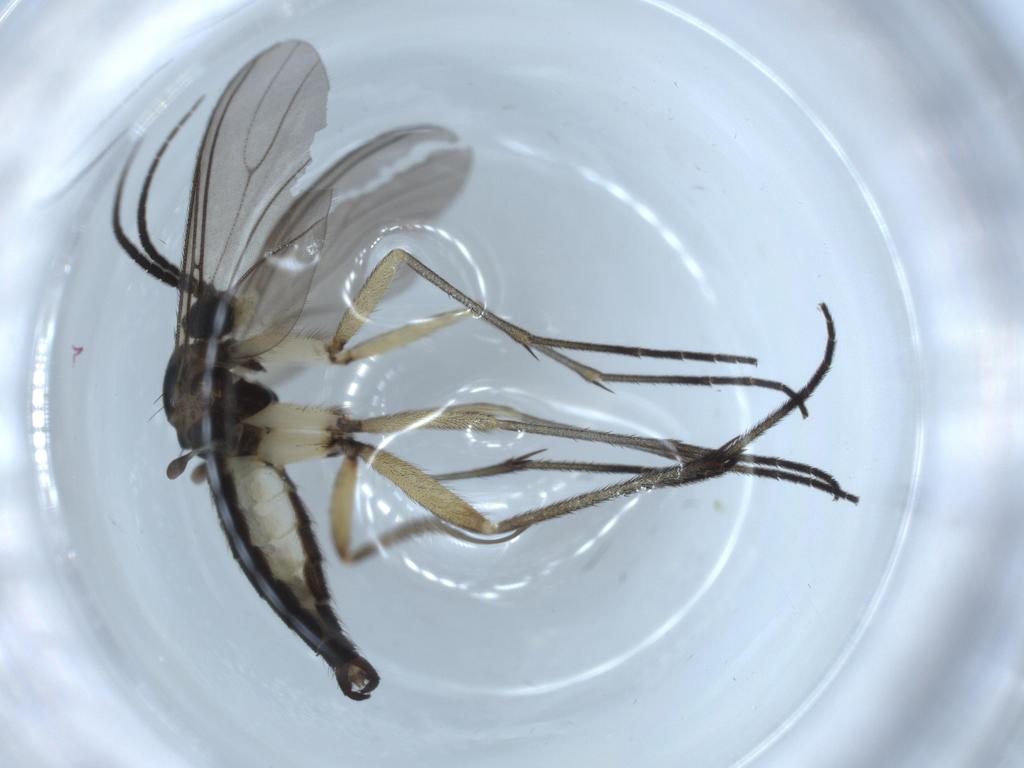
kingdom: Animalia
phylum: Arthropoda
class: Insecta
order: Diptera
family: Sciaridae
